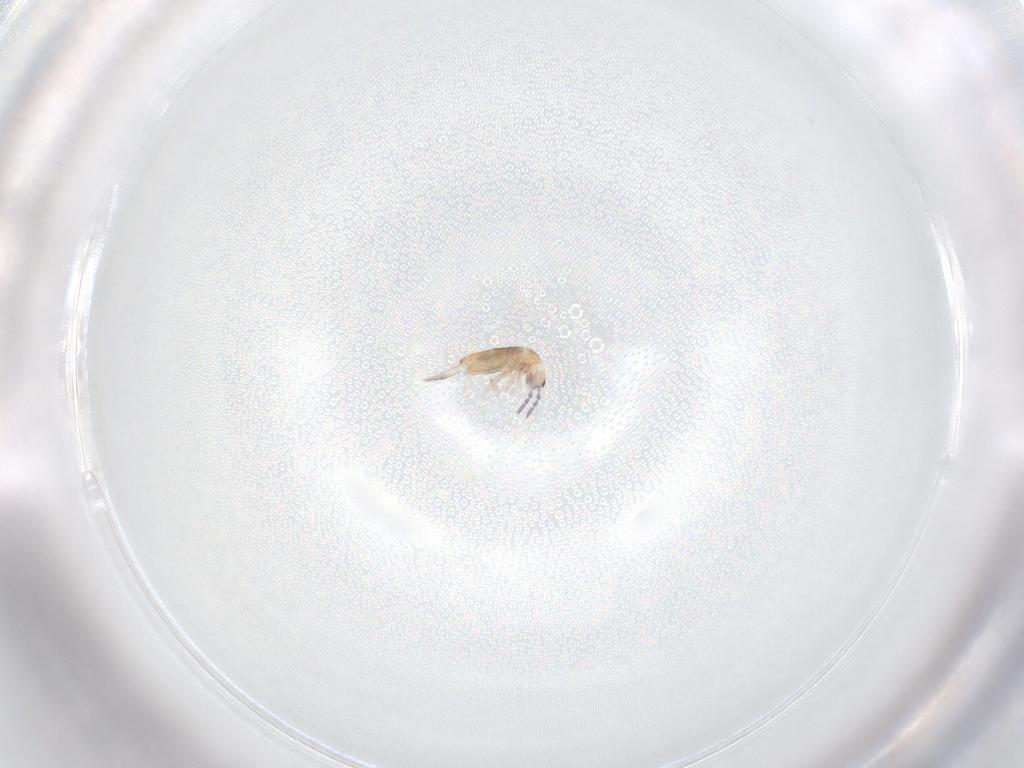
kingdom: Animalia
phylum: Arthropoda
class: Collembola
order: Entomobryomorpha
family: Entomobryidae
